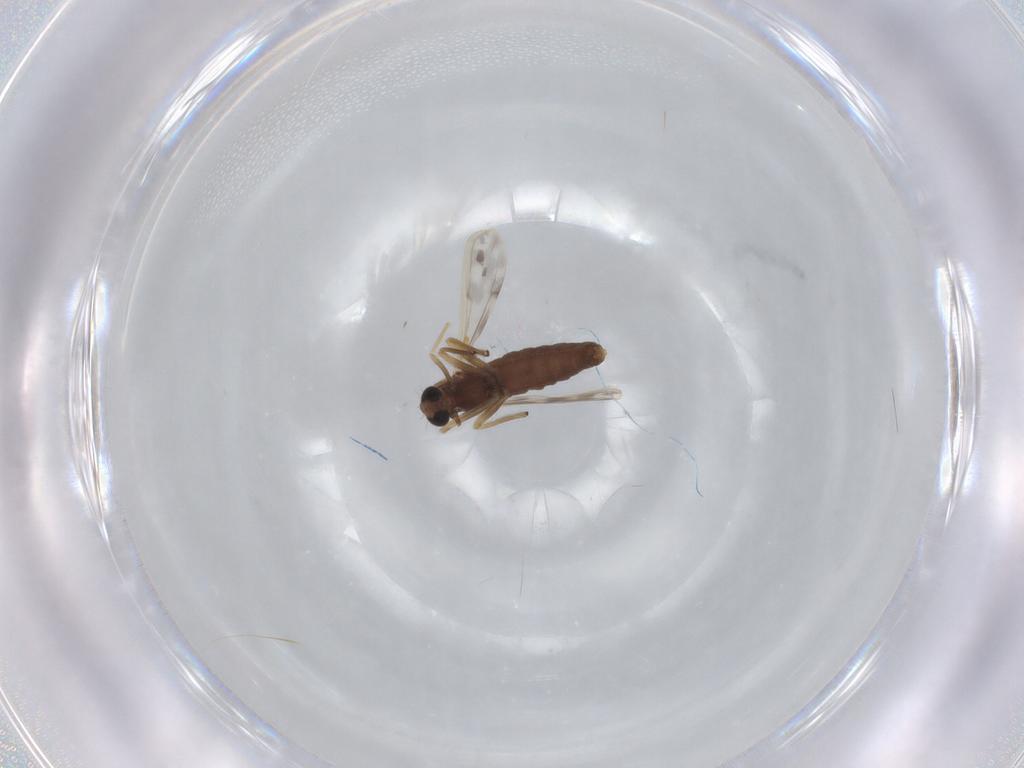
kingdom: Animalia
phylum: Arthropoda
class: Insecta
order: Diptera
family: Chironomidae
